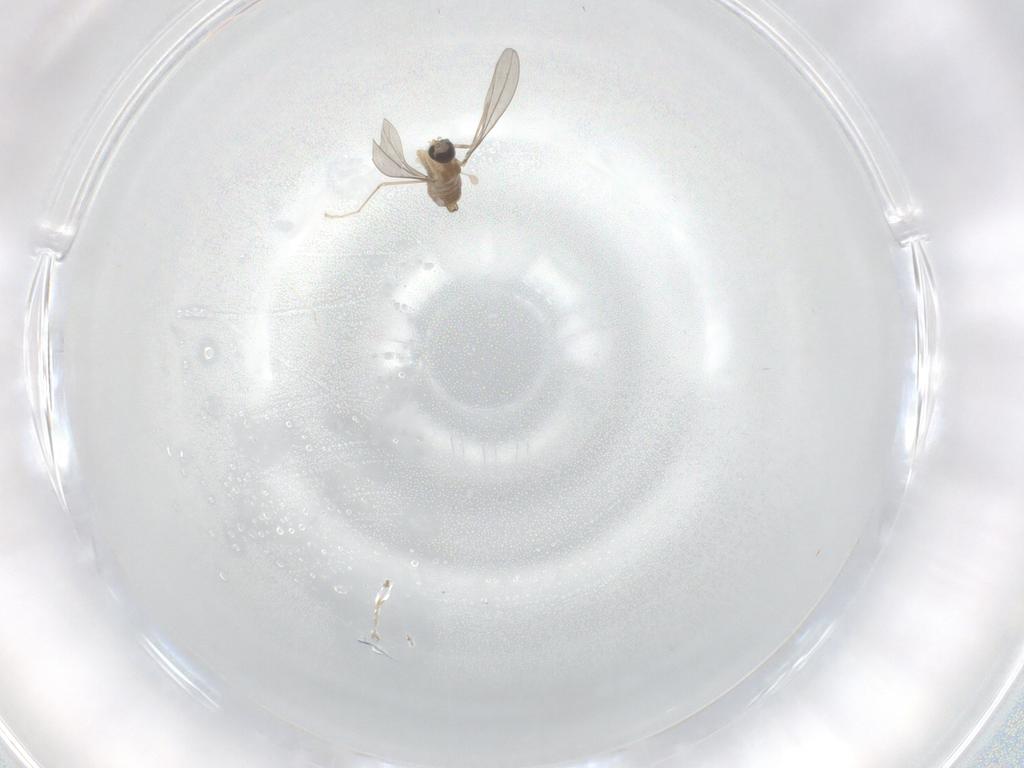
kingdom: Animalia
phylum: Arthropoda
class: Insecta
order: Diptera
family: Cecidomyiidae
